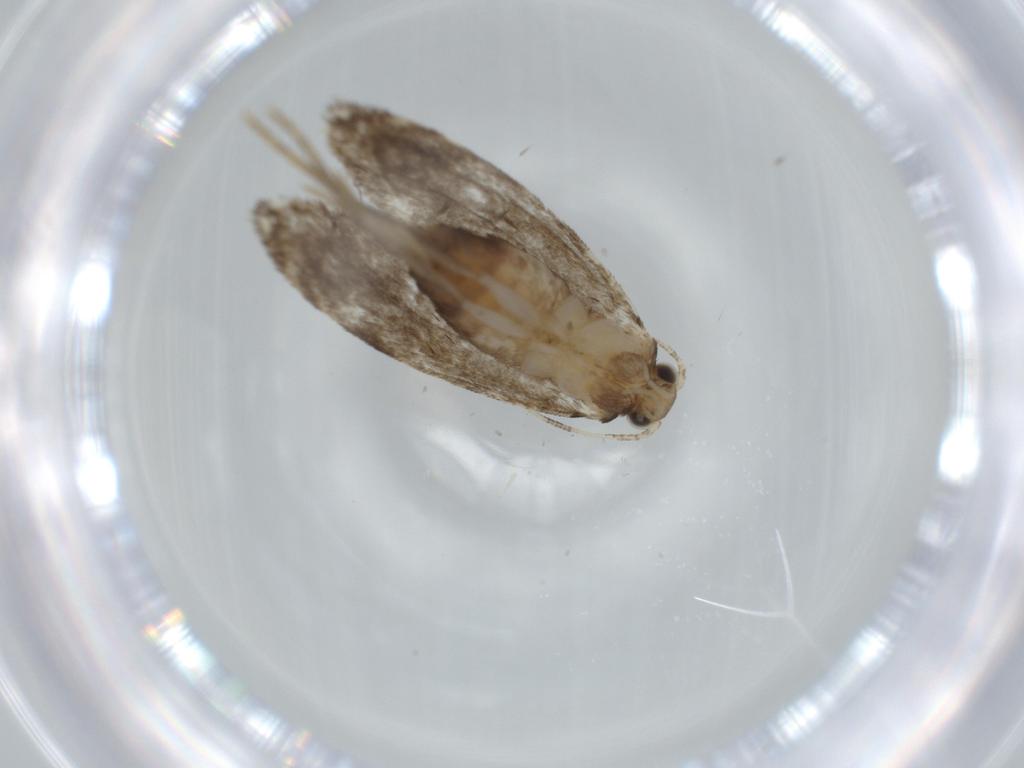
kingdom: Animalia
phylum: Arthropoda
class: Insecta
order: Lepidoptera
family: Tineidae
